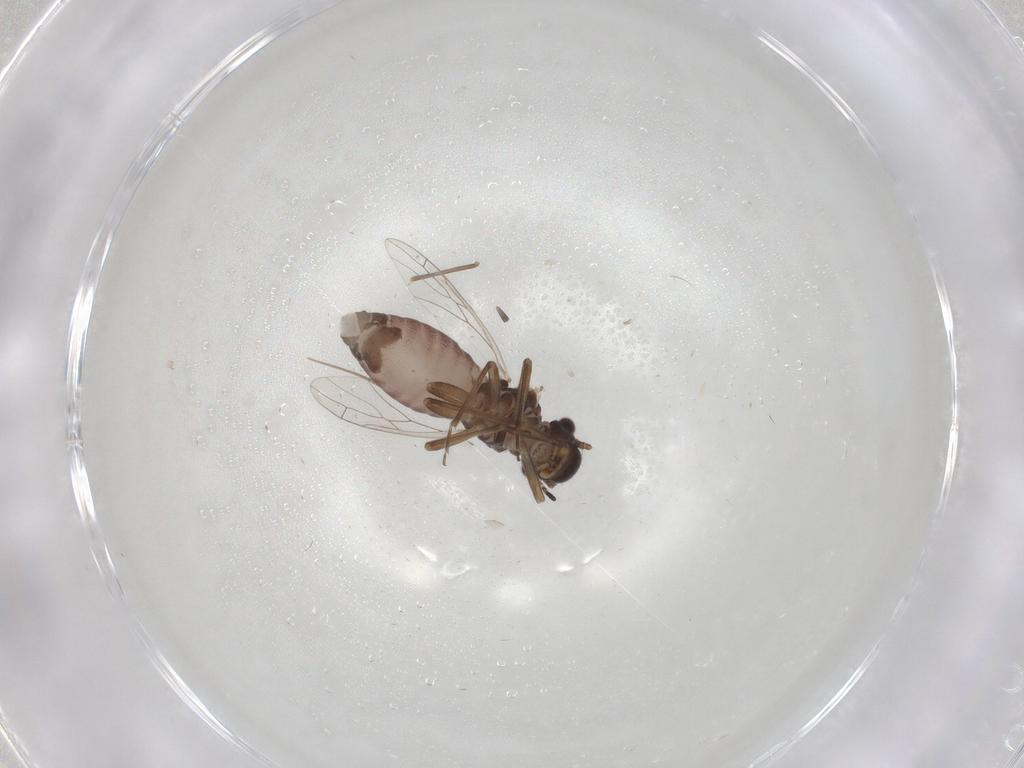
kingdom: Animalia
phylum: Arthropoda
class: Insecta
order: Psocodea
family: Lachesillidae
